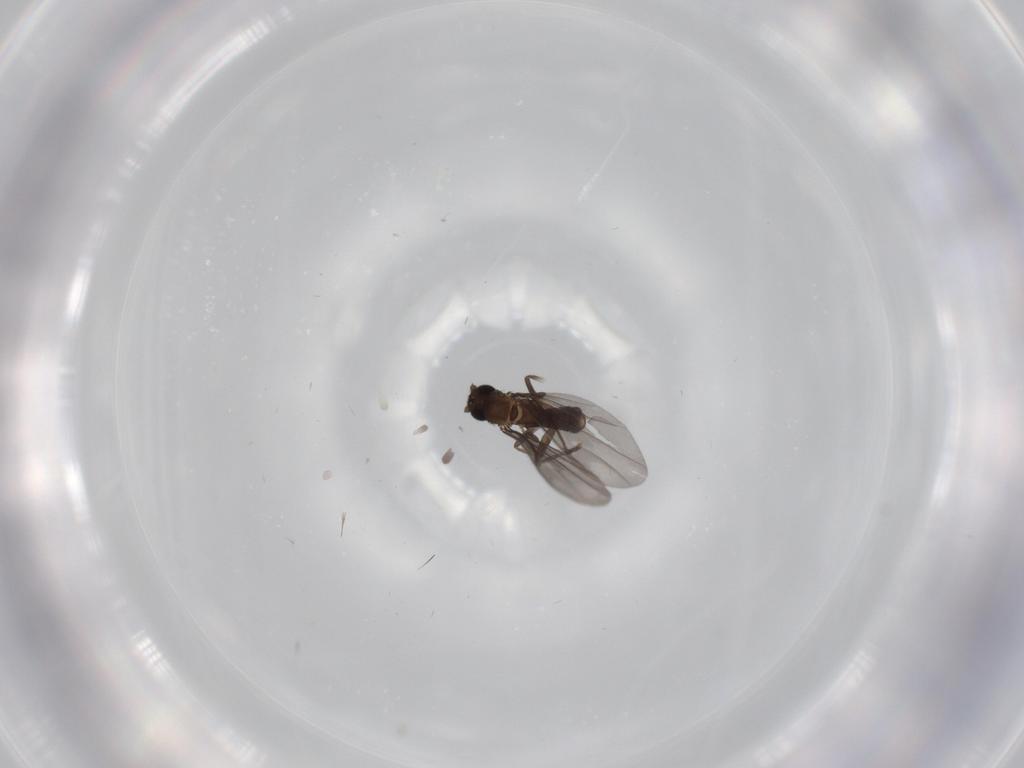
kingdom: Animalia
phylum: Arthropoda
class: Insecta
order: Diptera
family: Phoridae
